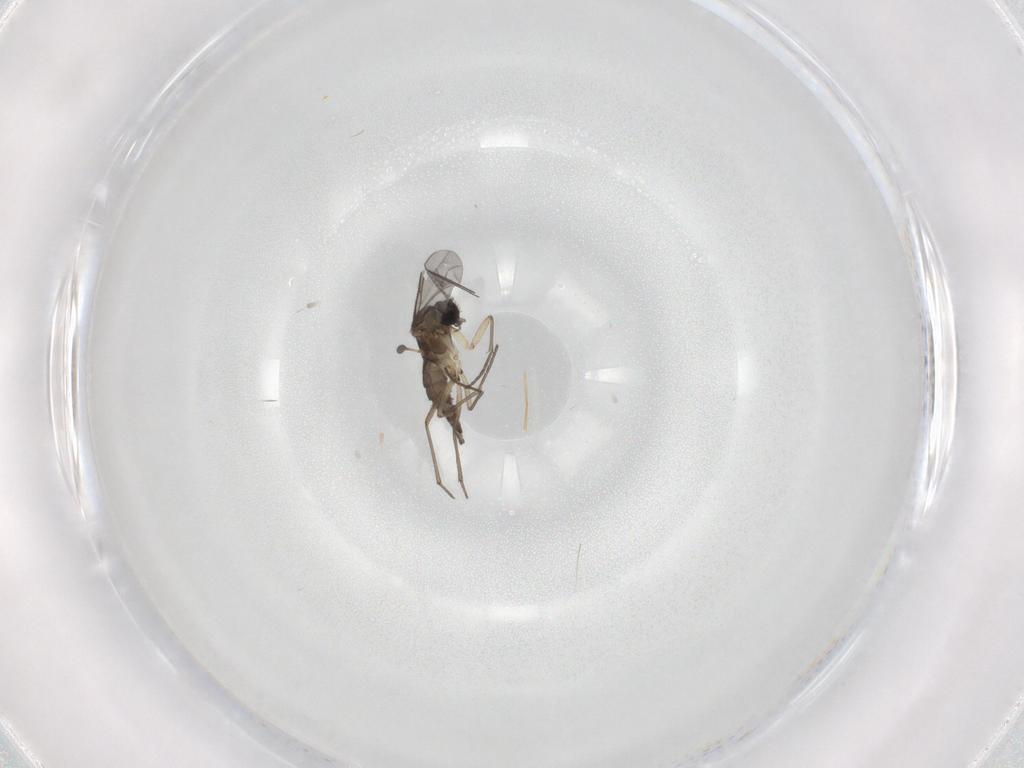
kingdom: Animalia
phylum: Arthropoda
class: Insecta
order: Diptera
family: Sciaridae
